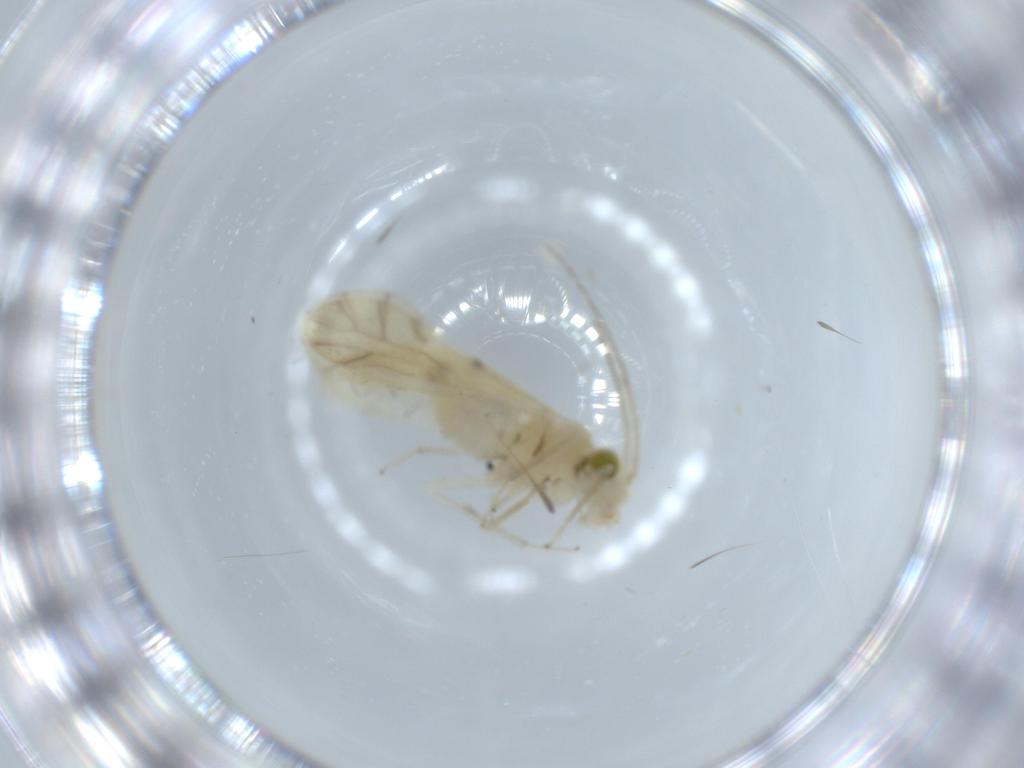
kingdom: Animalia
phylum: Arthropoda
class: Insecta
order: Psocodea
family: Caeciliusidae
